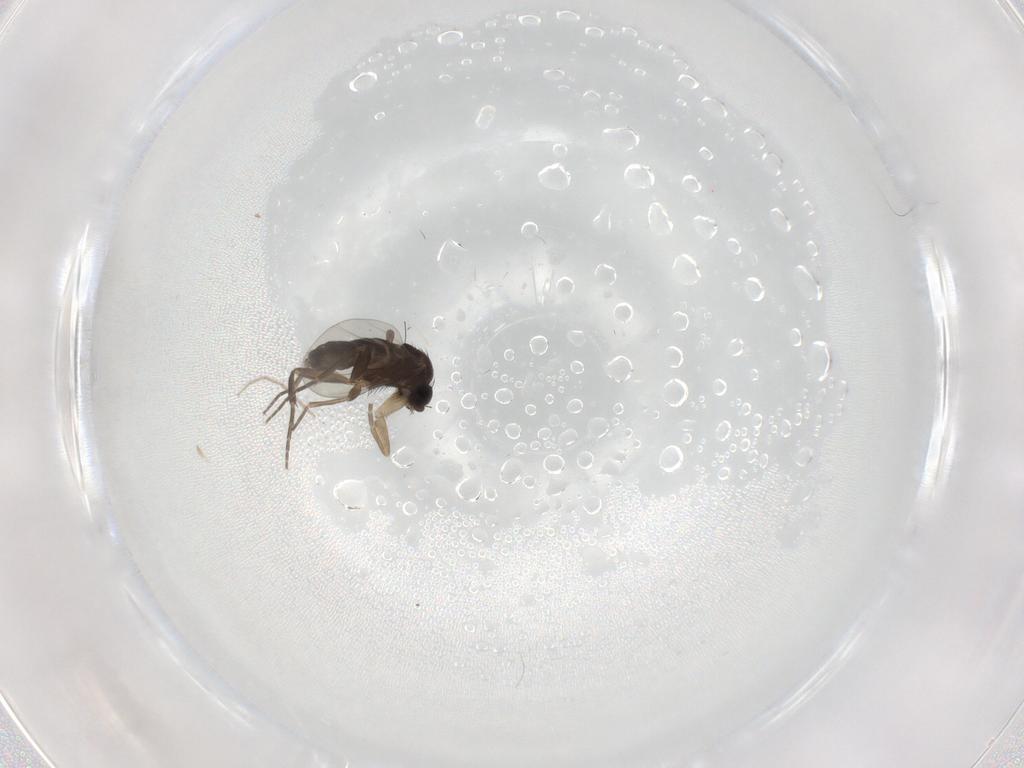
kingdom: Animalia
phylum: Arthropoda
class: Insecta
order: Diptera
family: Phoridae
